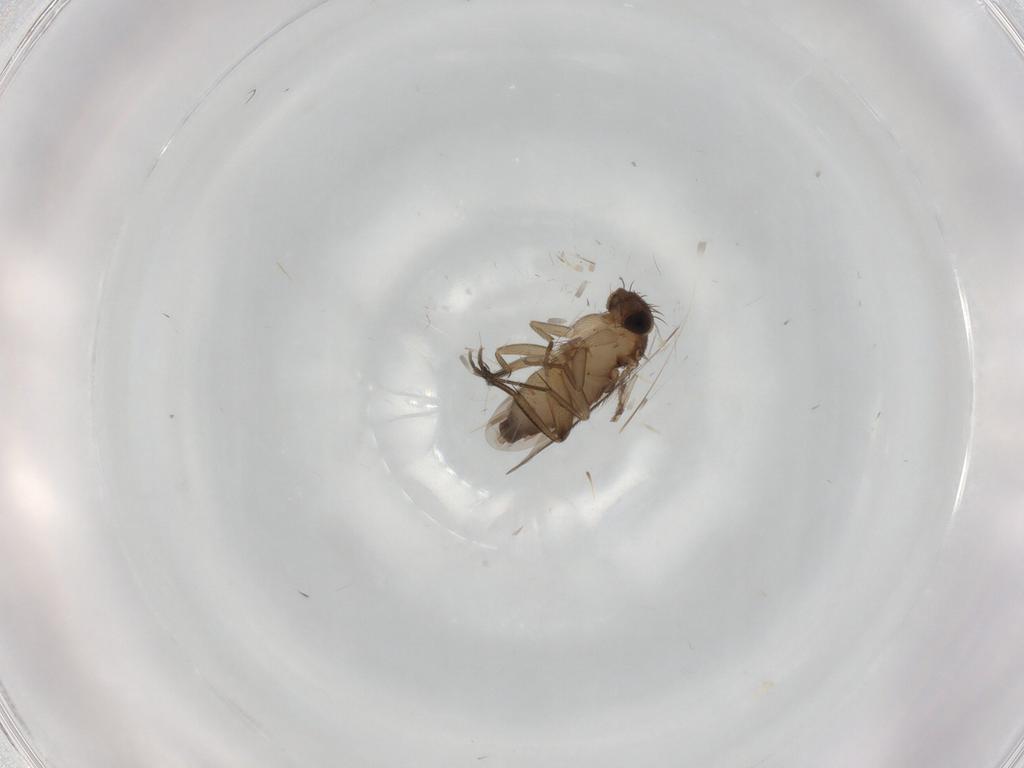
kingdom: Animalia
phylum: Arthropoda
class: Insecta
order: Diptera
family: Phoridae
